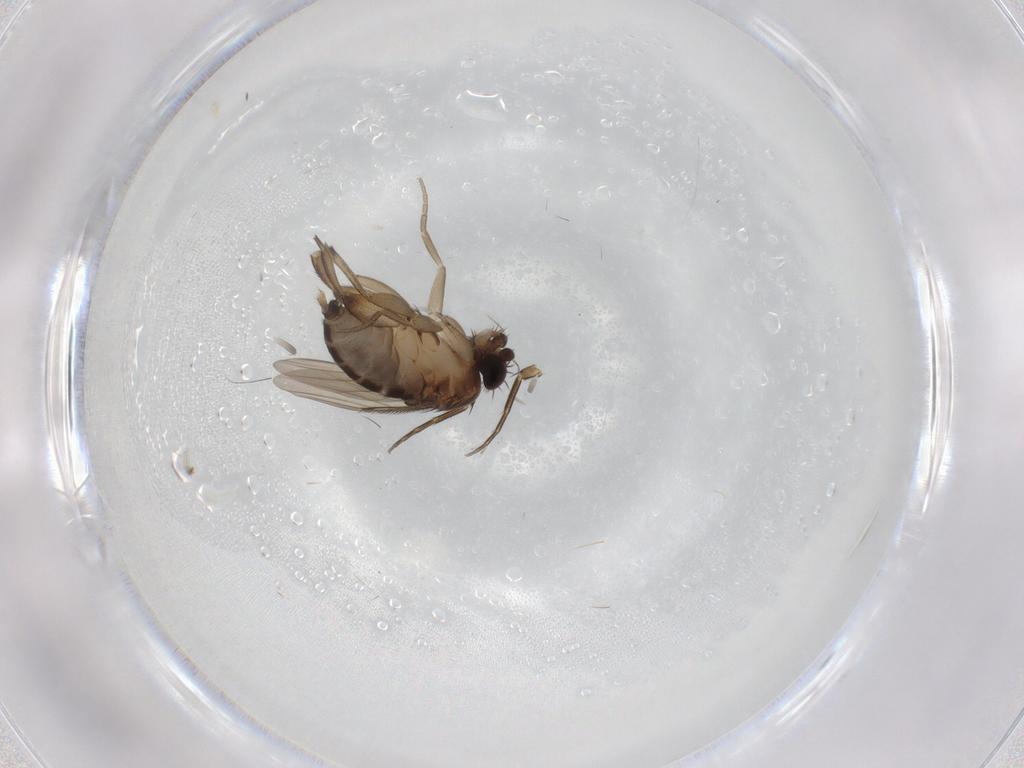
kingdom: Animalia
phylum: Arthropoda
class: Insecta
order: Diptera
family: Phoridae
